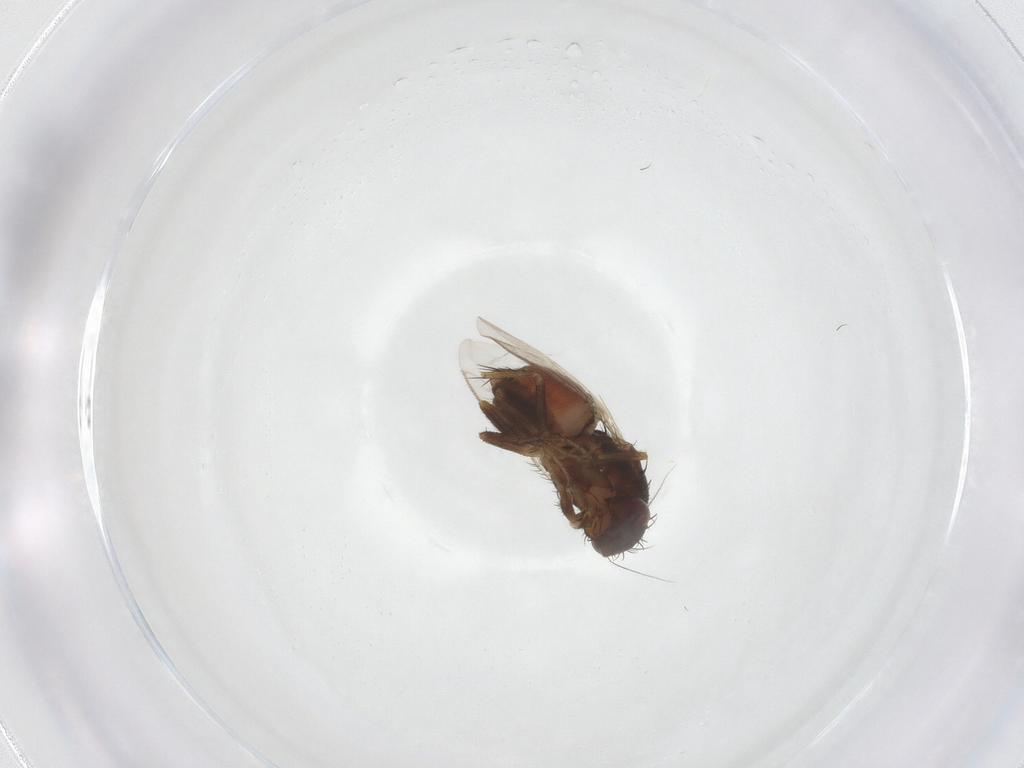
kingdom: Animalia
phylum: Arthropoda
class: Insecta
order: Diptera
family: Sphaeroceridae
